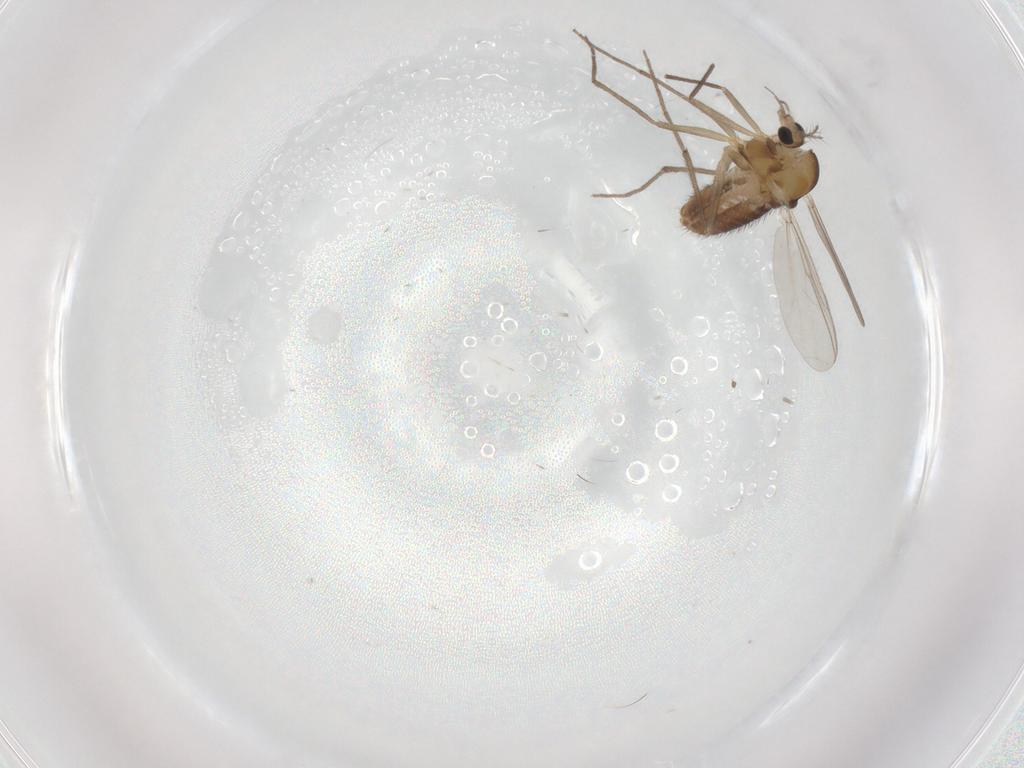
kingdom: Animalia
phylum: Arthropoda
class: Insecta
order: Diptera
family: Chironomidae
